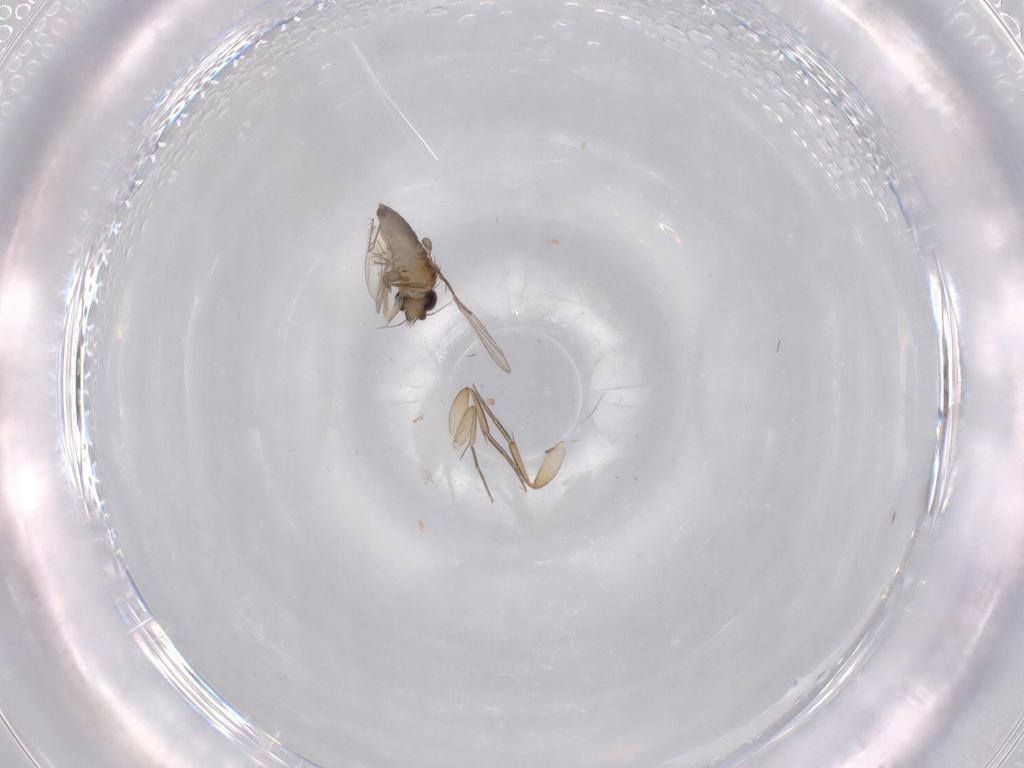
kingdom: Animalia
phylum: Arthropoda
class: Insecta
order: Diptera
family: Phoridae
